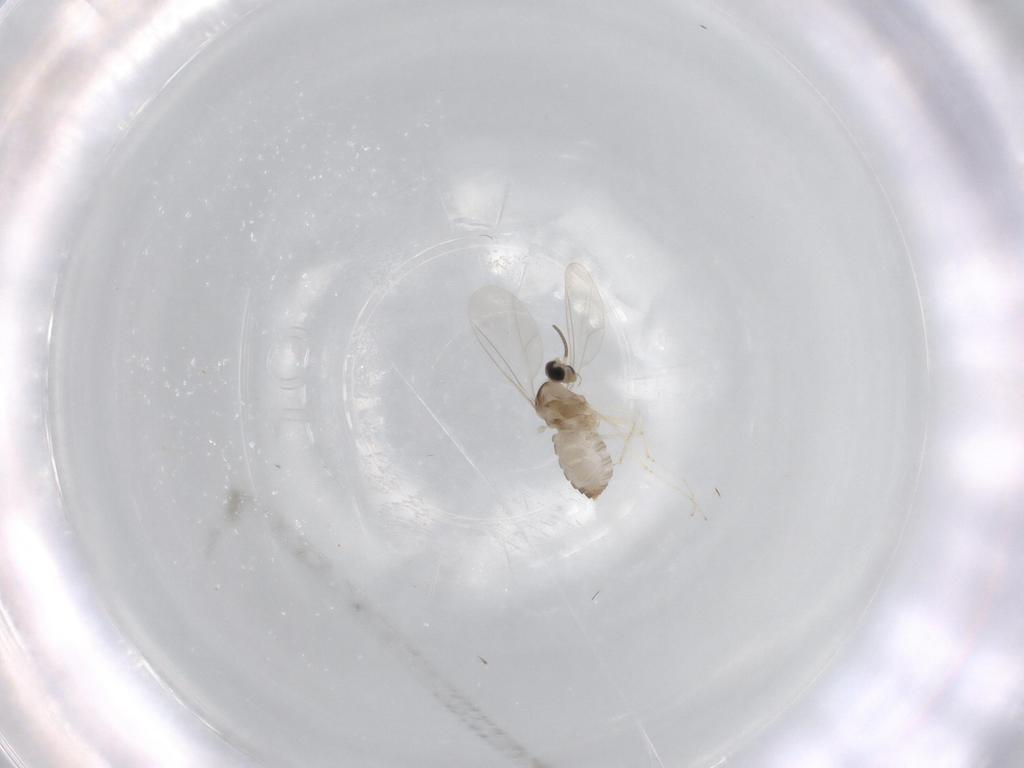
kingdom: Animalia
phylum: Arthropoda
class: Insecta
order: Diptera
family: Cecidomyiidae
